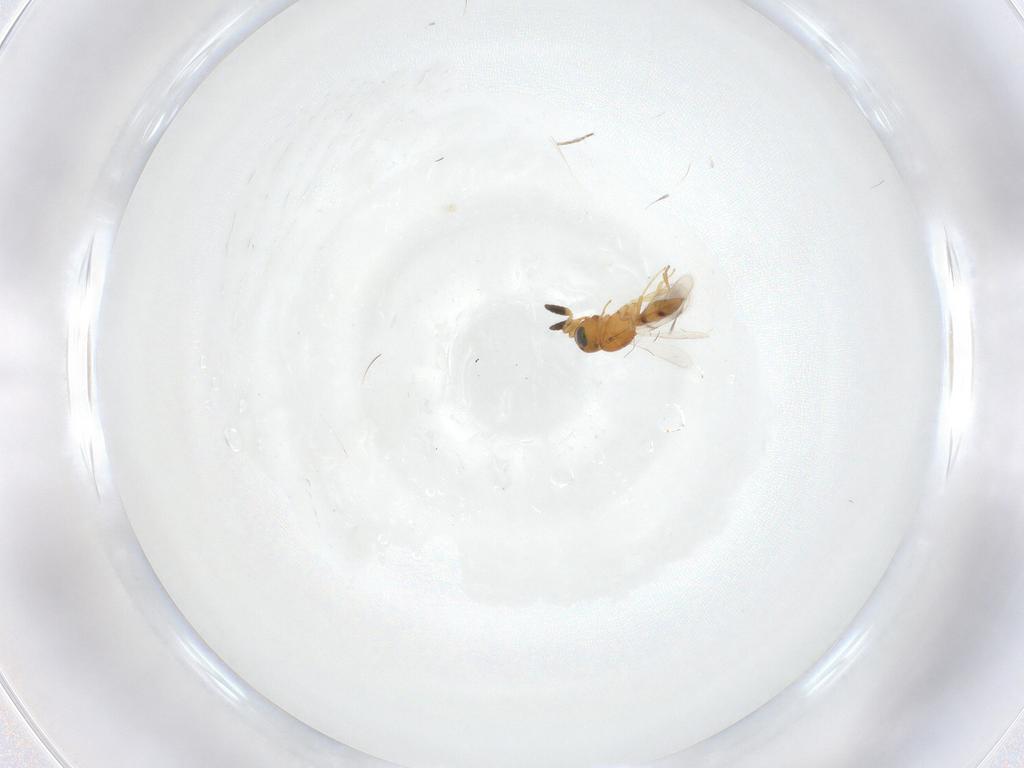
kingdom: Animalia
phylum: Arthropoda
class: Insecta
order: Hymenoptera
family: Scelionidae
